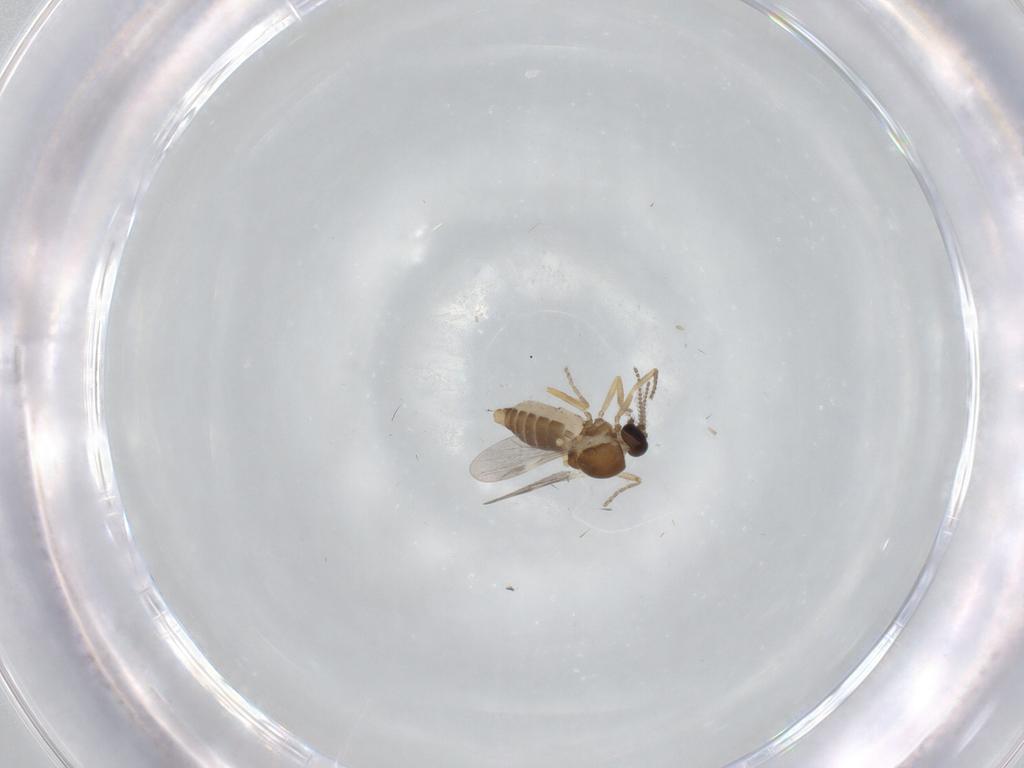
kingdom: Animalia
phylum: Arthropoda
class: Insecta
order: Diptera
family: Ceratopogonidae
